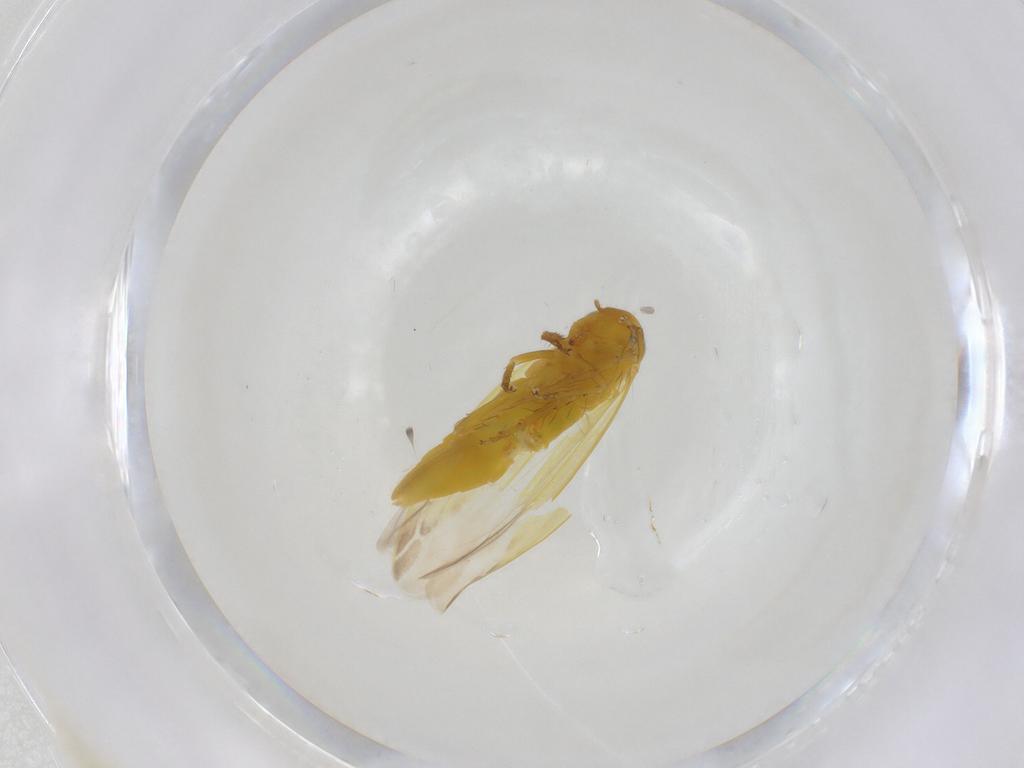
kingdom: Animalia
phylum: Arthropoda
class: Insecta
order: Hemiptera
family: Cicadellidae
